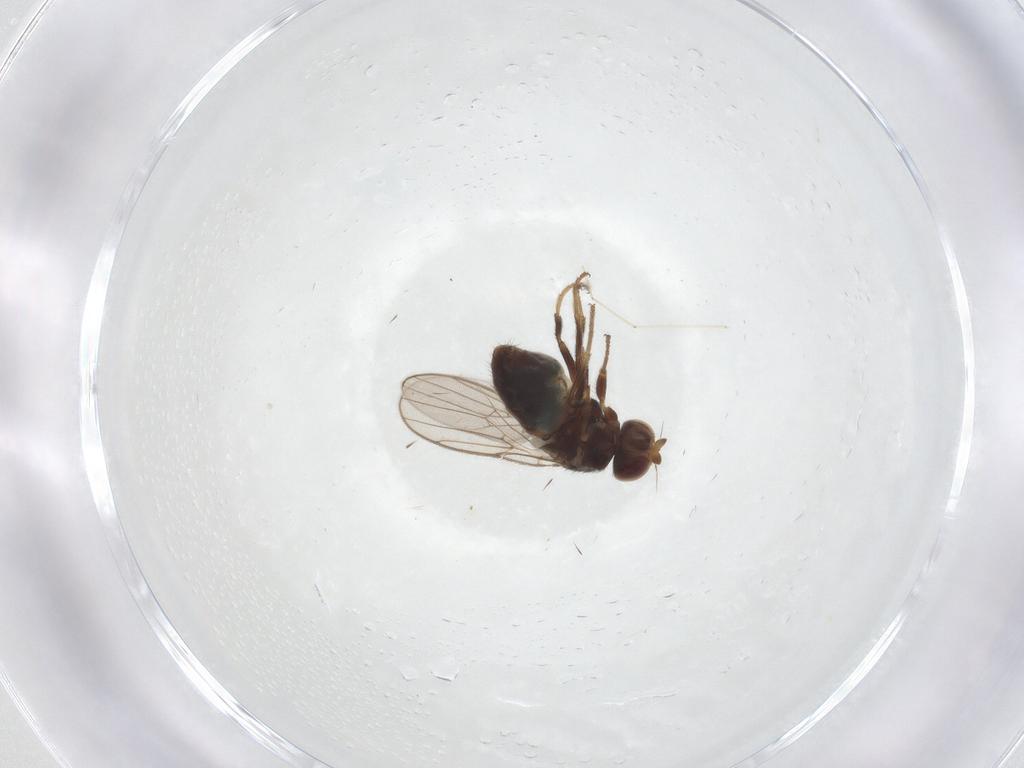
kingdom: Animalia
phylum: Arthropoda
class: Insecta
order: Diptera
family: Chloropidae
